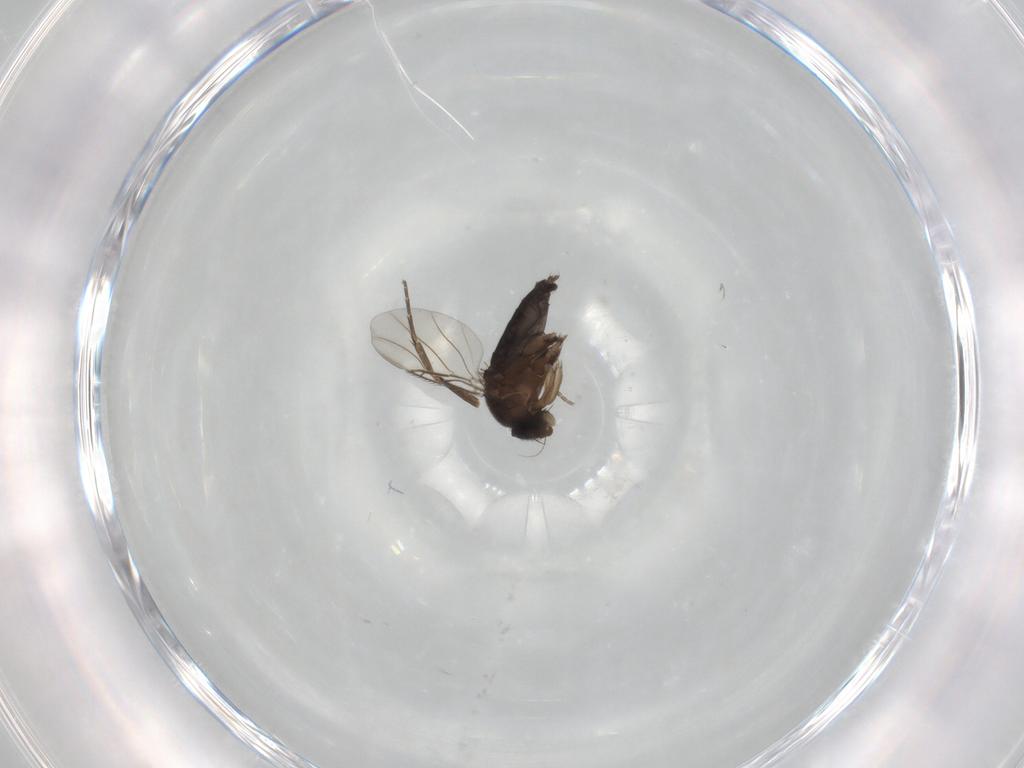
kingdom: Animalia
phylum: Arthropoda
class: Insecta
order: Diptera
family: Phoridae
